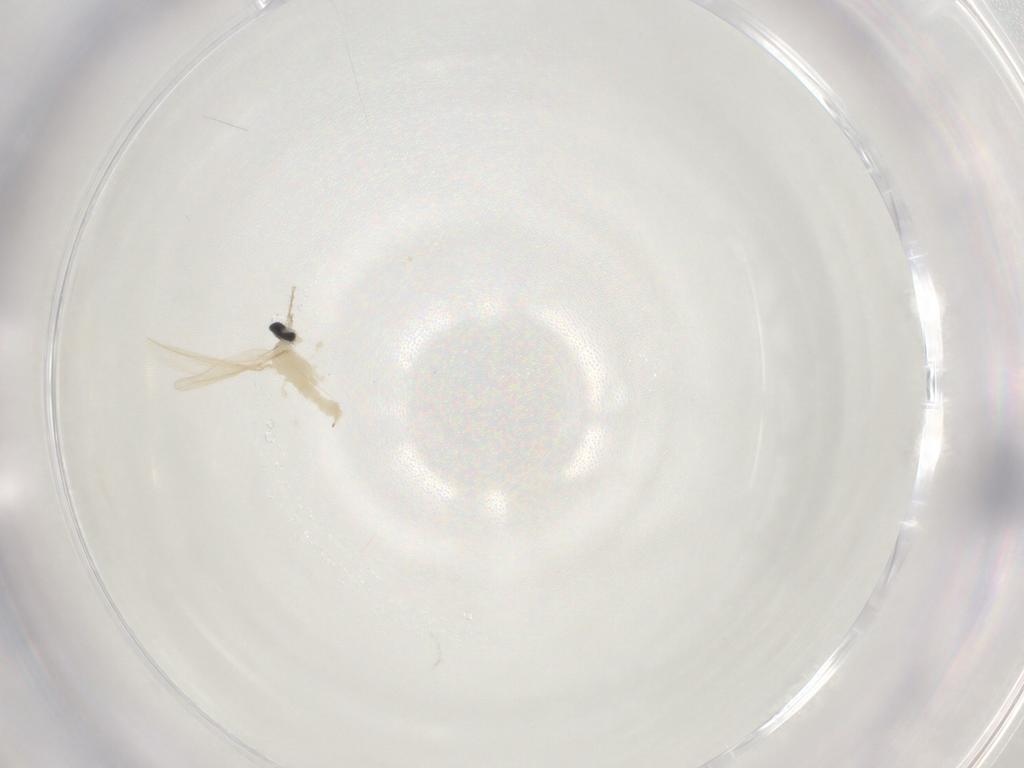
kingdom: Animalia
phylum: Arthropoda
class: Insecta
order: Diptera
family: Cecidomyiidae
